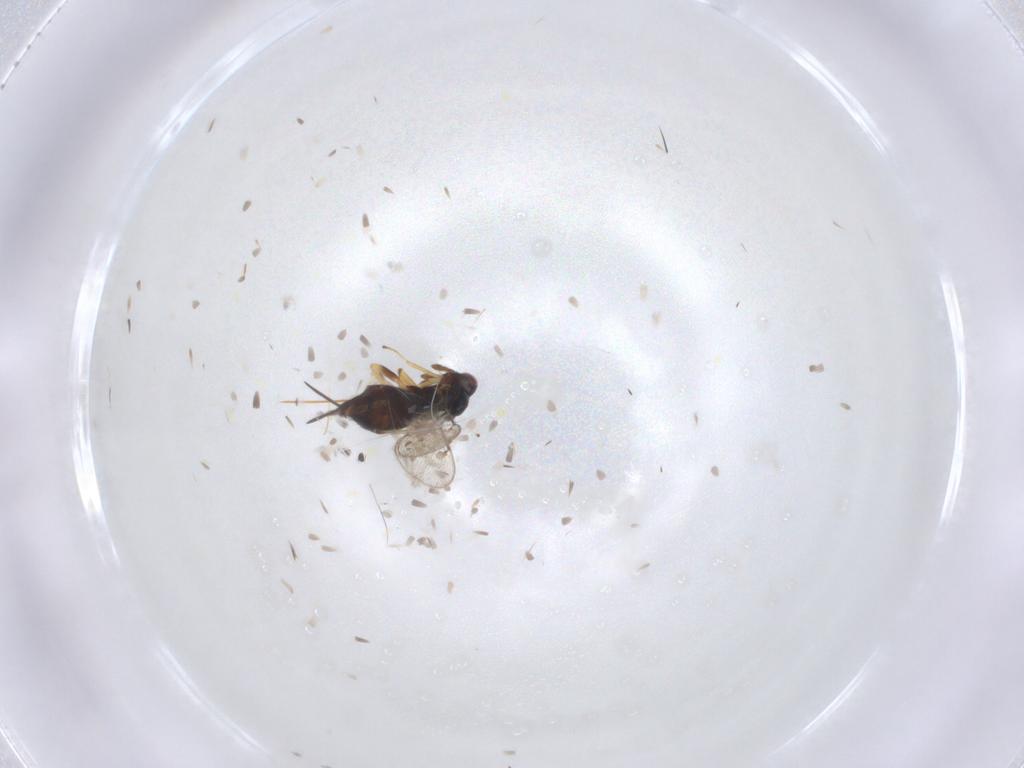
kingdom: Animalia
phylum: Arthropoda
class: Insecta
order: Hymenoptera
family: Eulophidae
